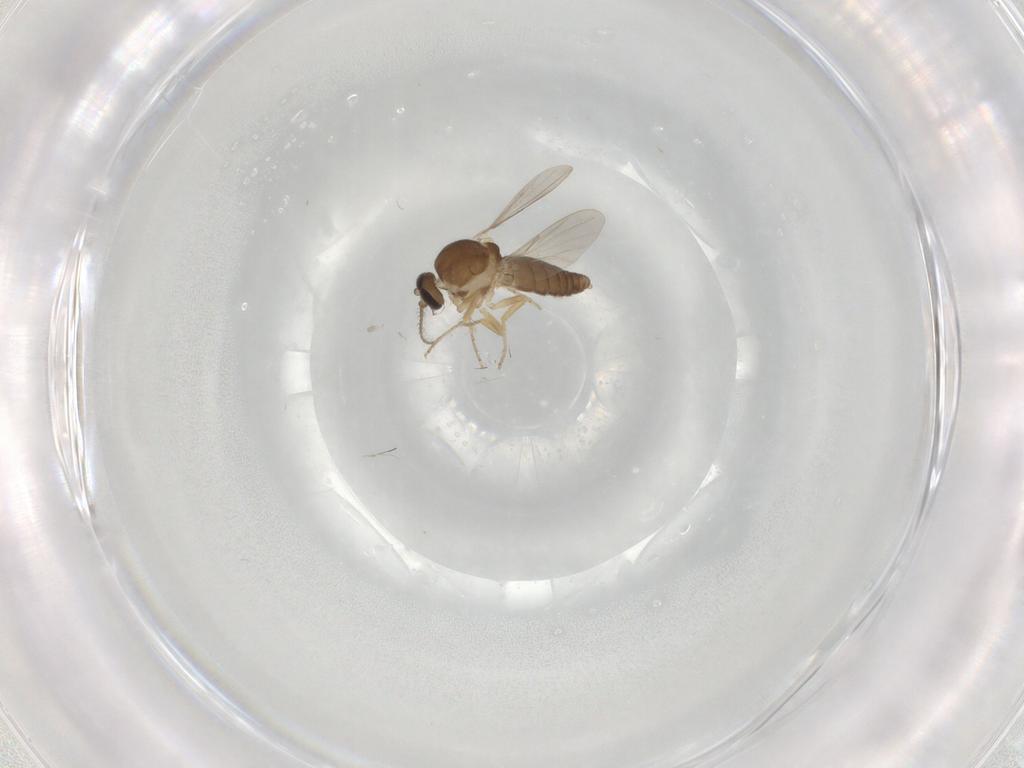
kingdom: Animalia
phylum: Arthropoda
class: Insecta
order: Diptera
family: Ceratopogonidae
